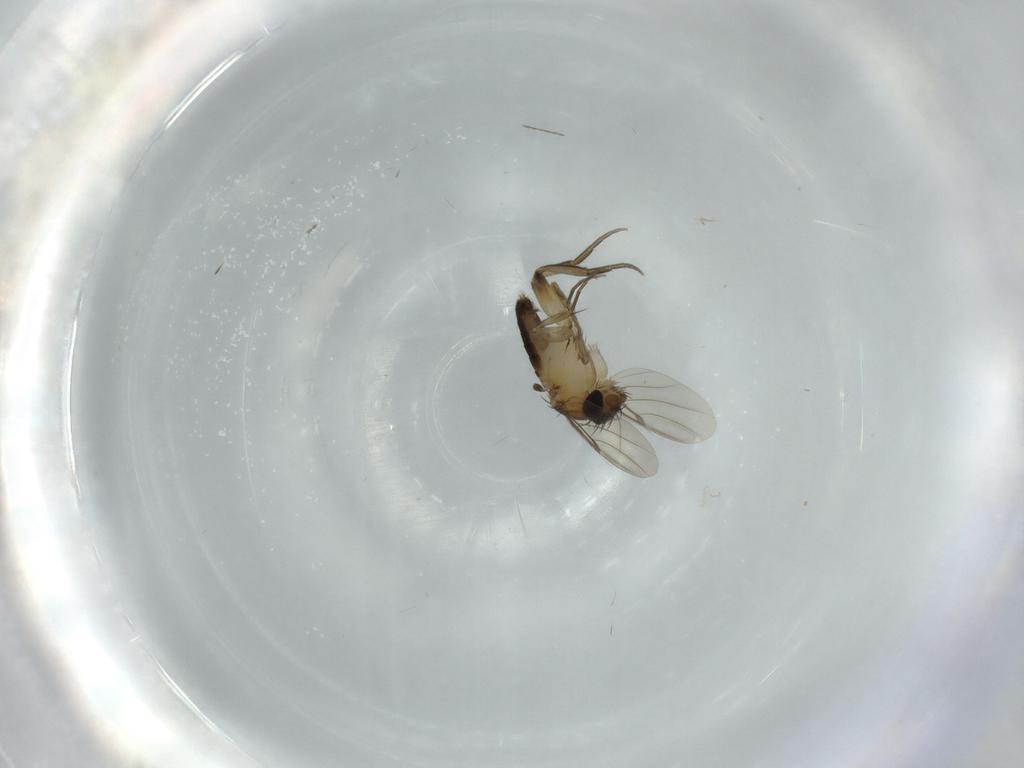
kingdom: Animalia
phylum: Arthropoda
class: Insecta
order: Diptera
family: Phoridae
